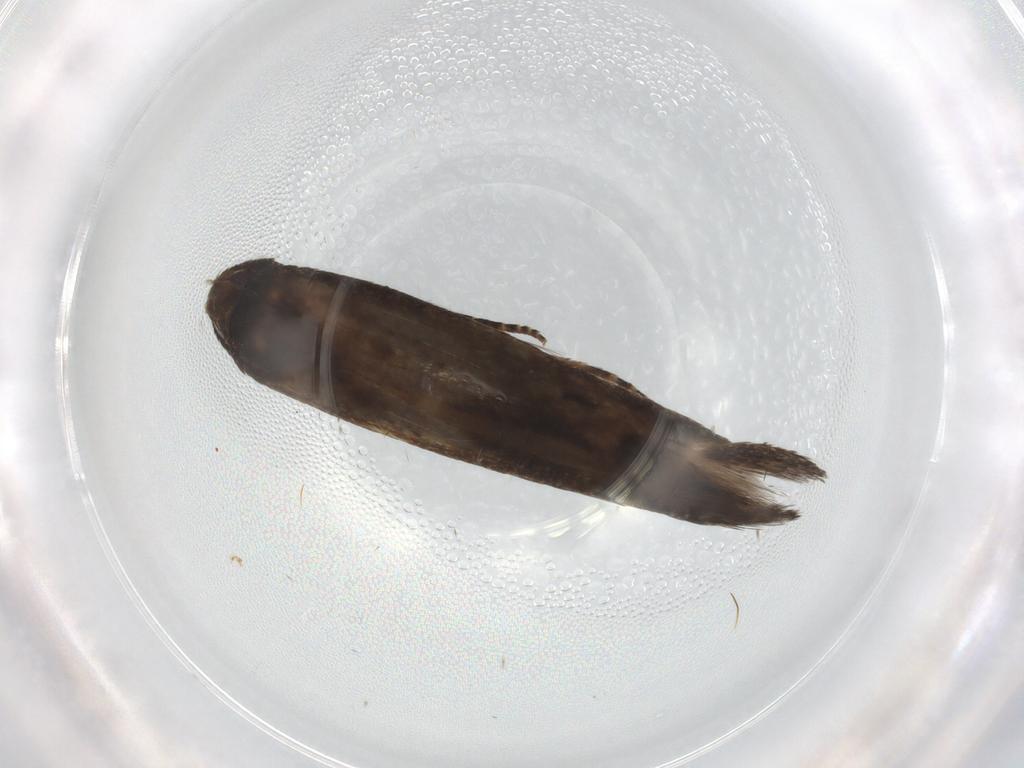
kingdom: Animalia
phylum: Arthropoda
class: Insecta
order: Lepidoptera
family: Cosmopterigidae
